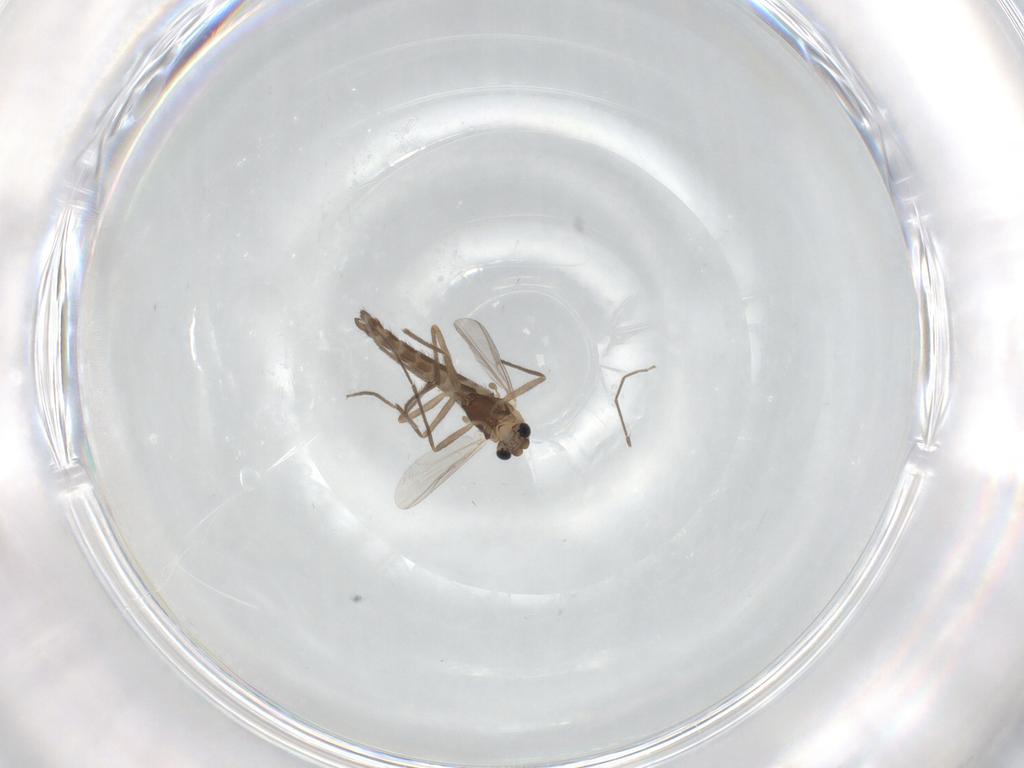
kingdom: Animalia
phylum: Arthropoda
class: Insecta
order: Diptera
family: Chironomidae
